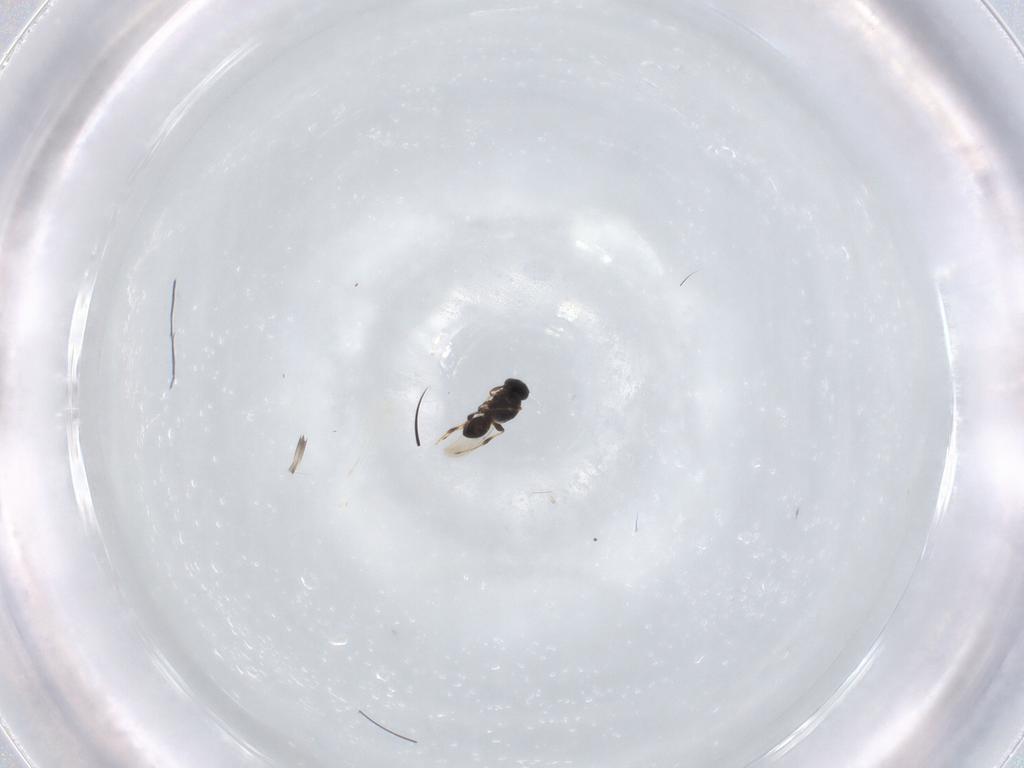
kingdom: Animalia
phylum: Arthropoda
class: Insecta
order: Hymenoptera
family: Platygastridae
